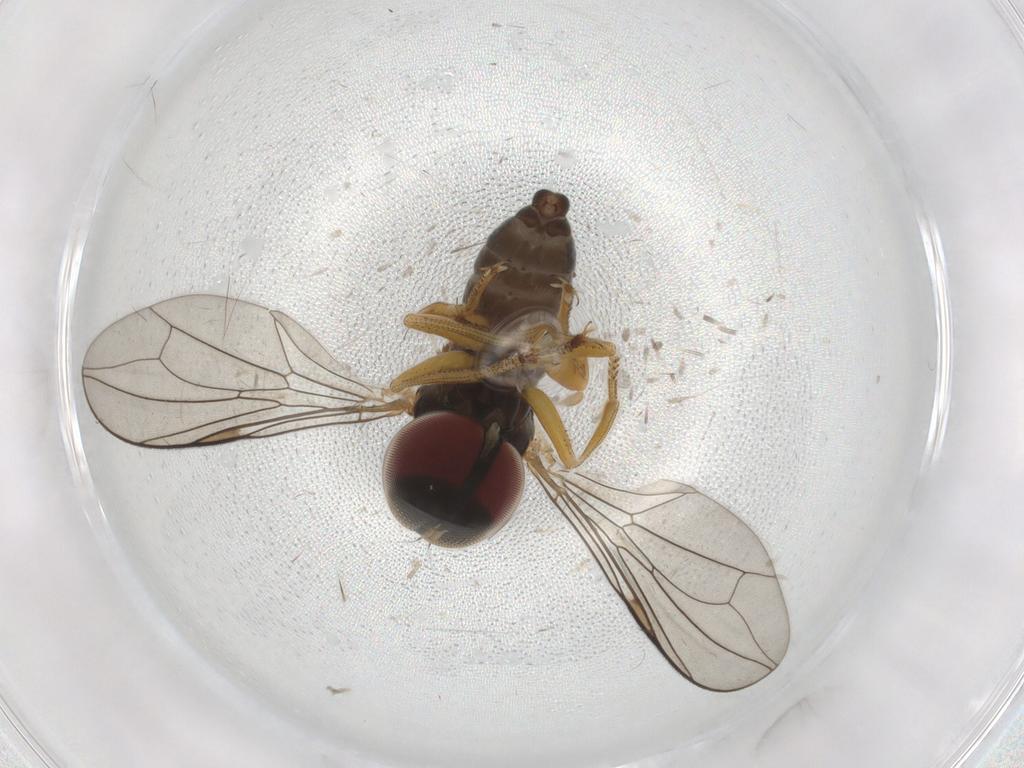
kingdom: Animalia
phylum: Arthropoda
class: Insecta
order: Diptera
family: Pipunculidae
